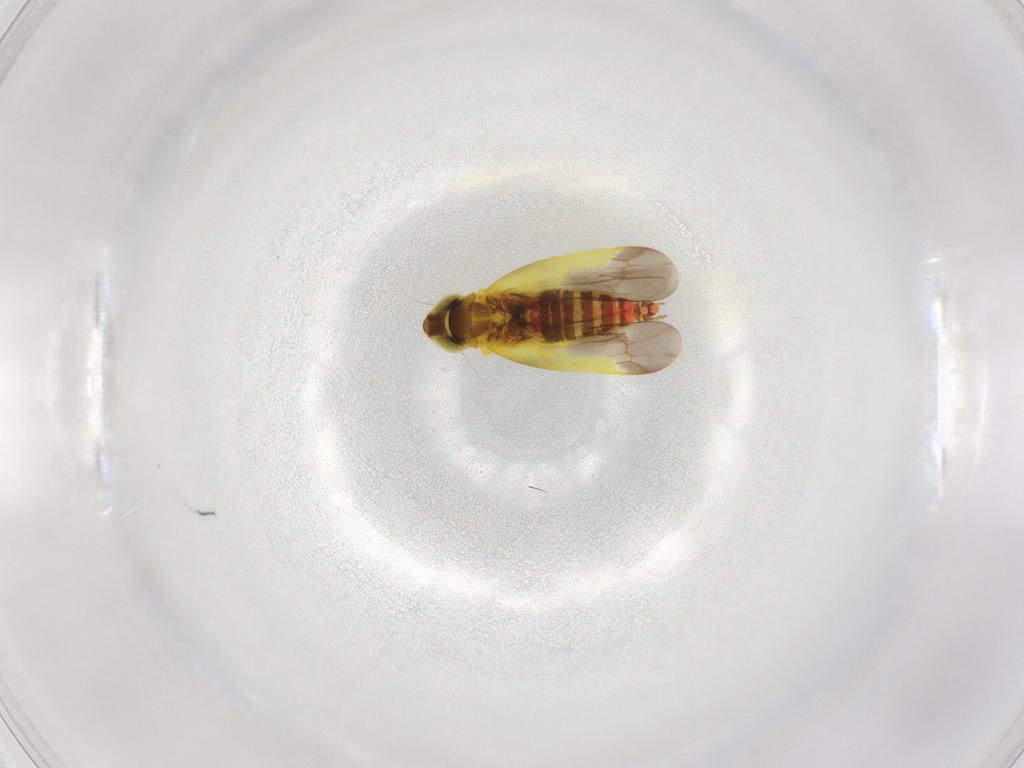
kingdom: Animalia
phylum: Arthropoda
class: Insecta
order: Hemiptera
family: Cicadellidae
